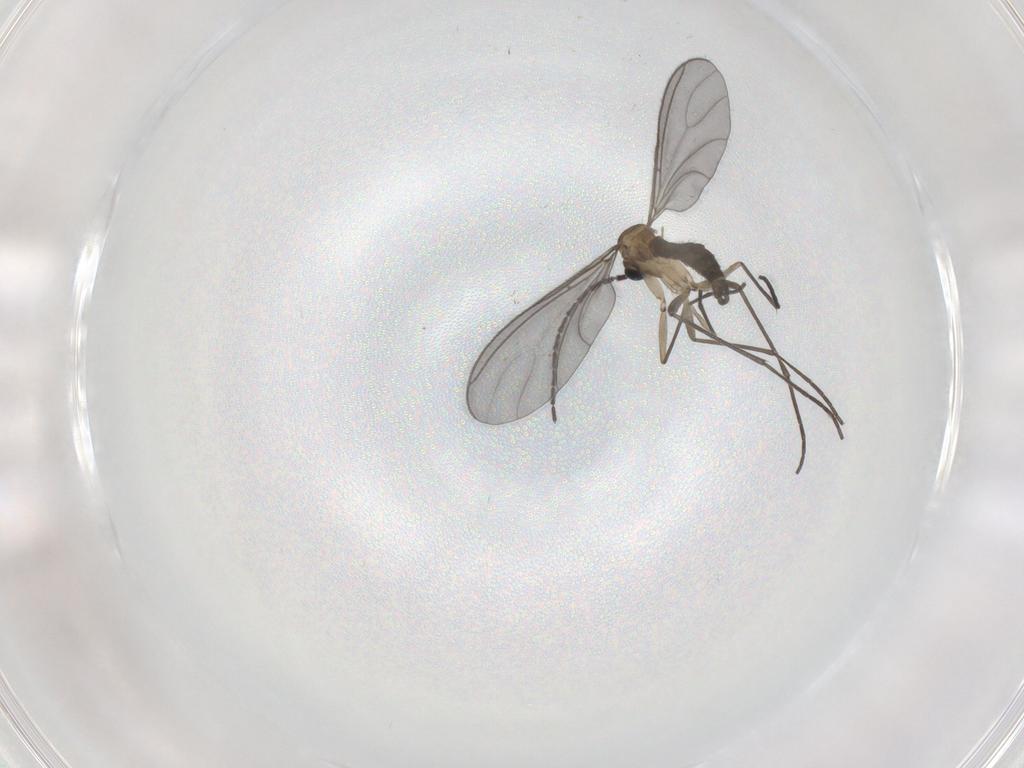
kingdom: Animalia
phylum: Arthropoda
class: Insecta
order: Diptera
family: Sciaridae
